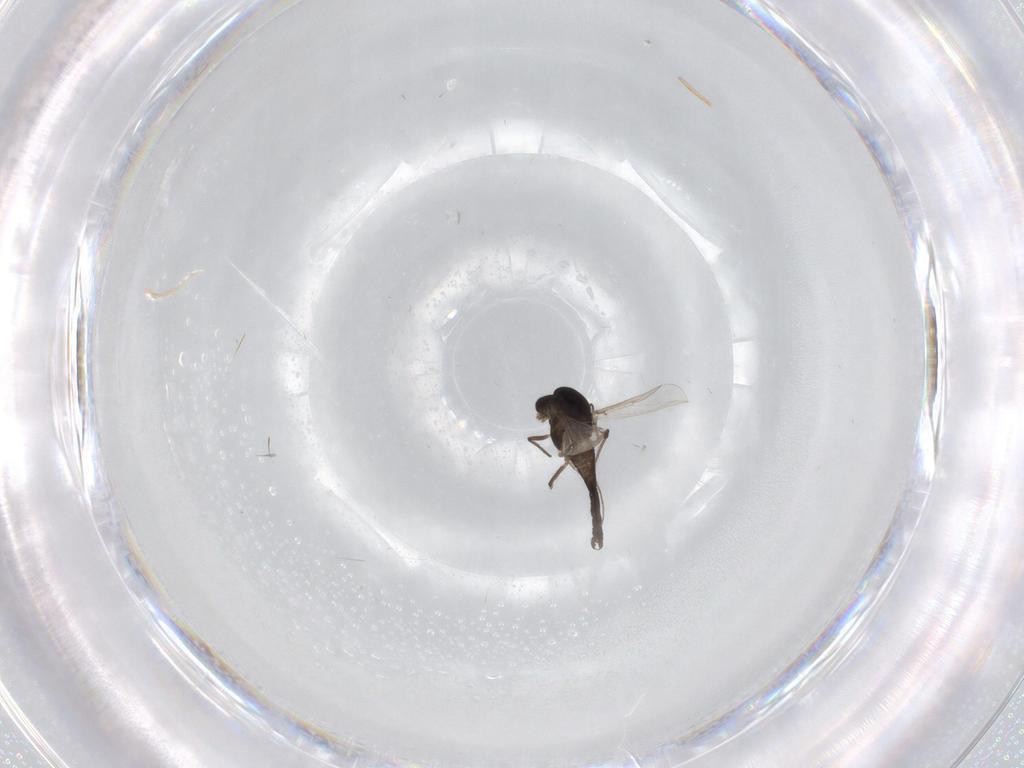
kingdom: Animalia
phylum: Arthropoda
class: Insecta
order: Diptera
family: Chironomidae
